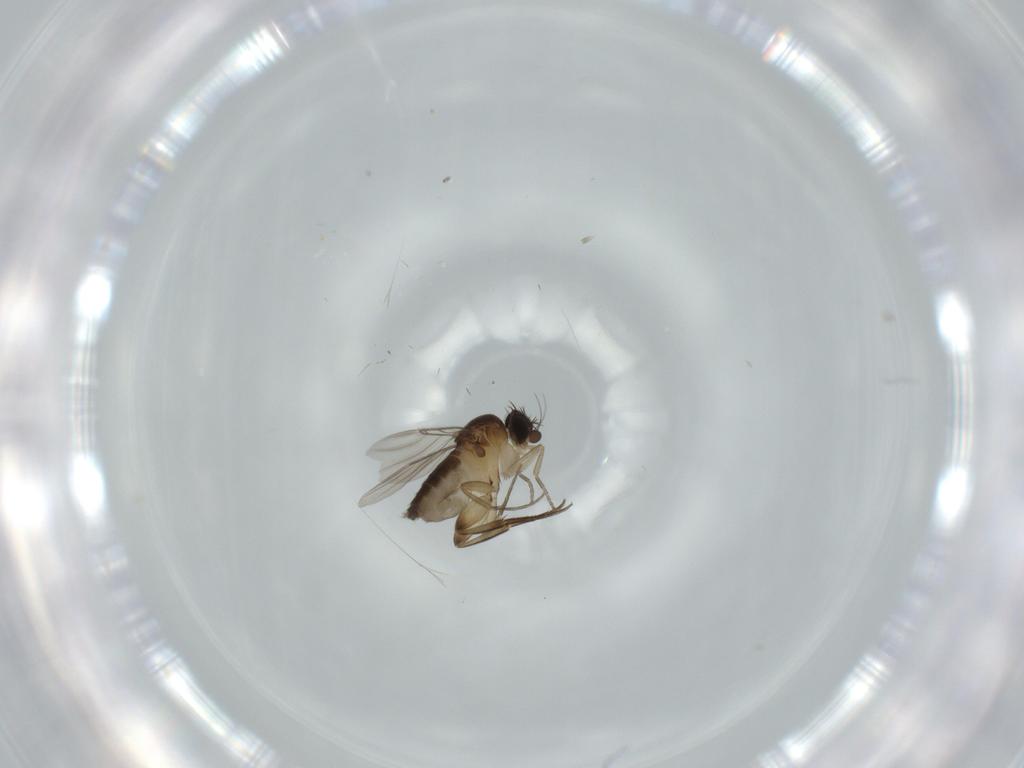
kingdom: Animalia
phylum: Arthropoda
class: Insecta
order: Diptera
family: Phoridae
